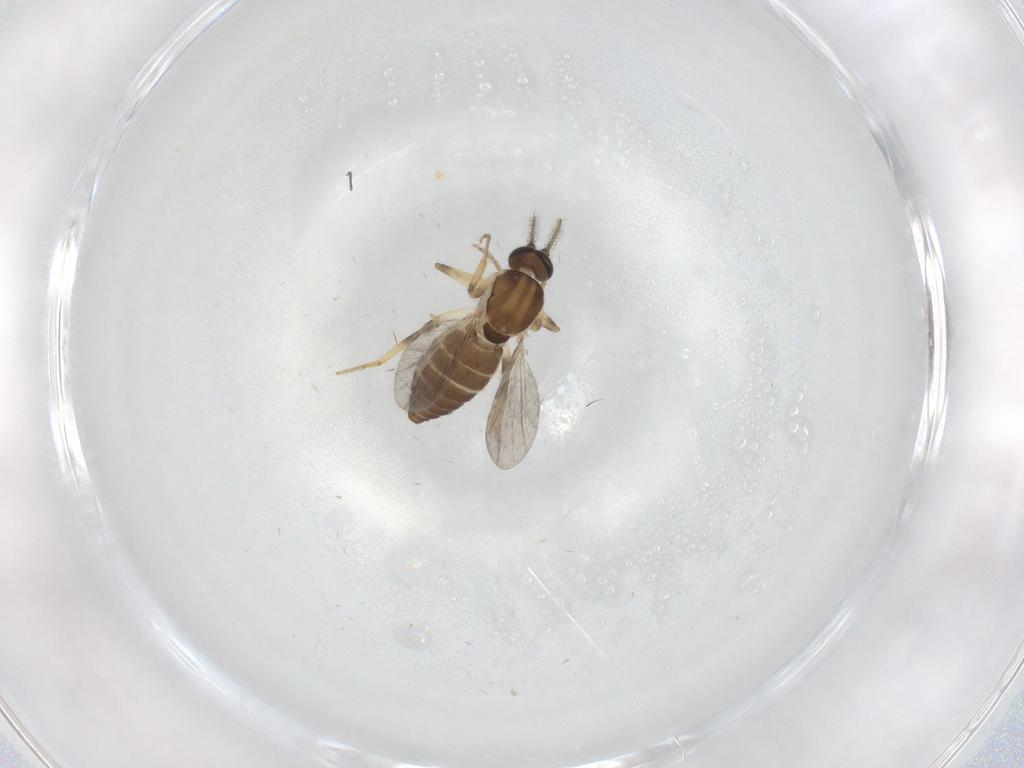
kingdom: Animalia
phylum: Arthropoda
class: Insecta
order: Diptera
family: Ceratopogonidae
